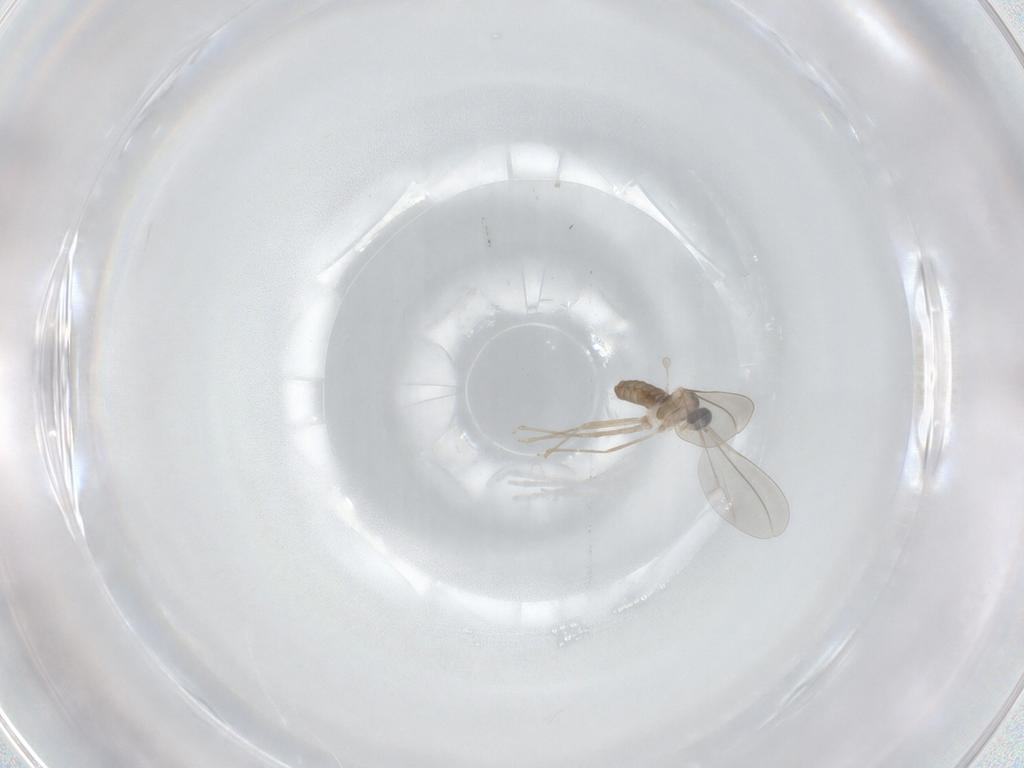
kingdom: Animalia
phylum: Arthropoda
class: Insecta
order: Diptera
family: Cecidomyiidae
